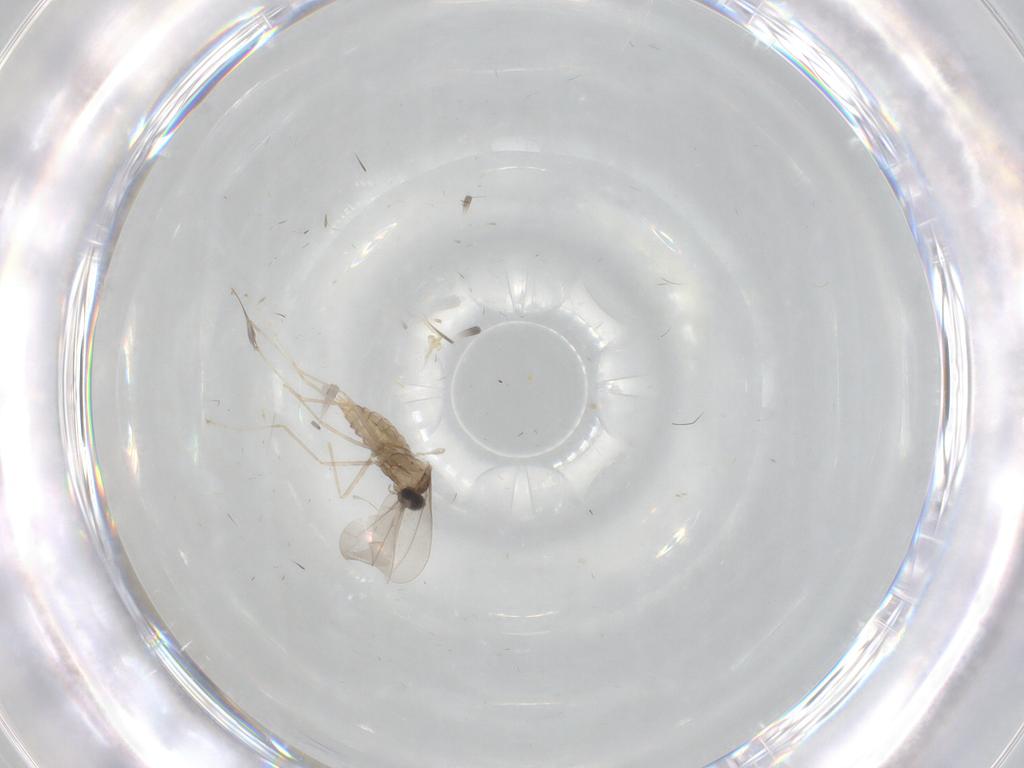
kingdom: Animalia
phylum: Arthropoda
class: Insecta
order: Diptera
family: Cecidomyiidae
